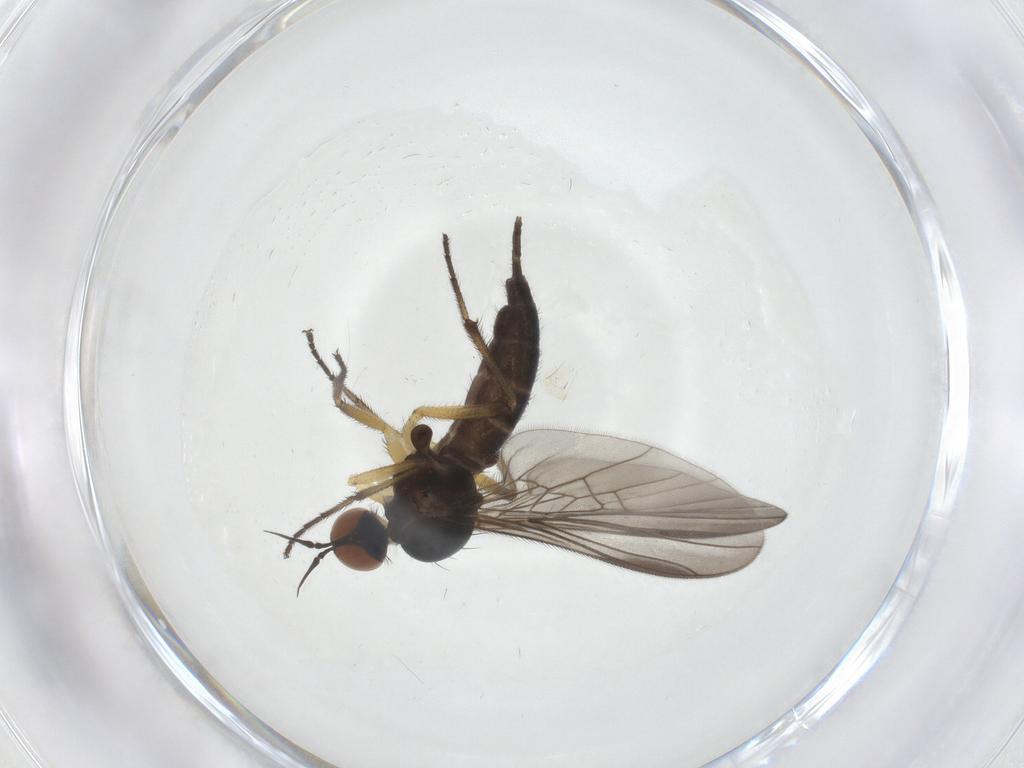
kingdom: Animalia
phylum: Arthropoda
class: Insecta
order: Diptera
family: Empididae
